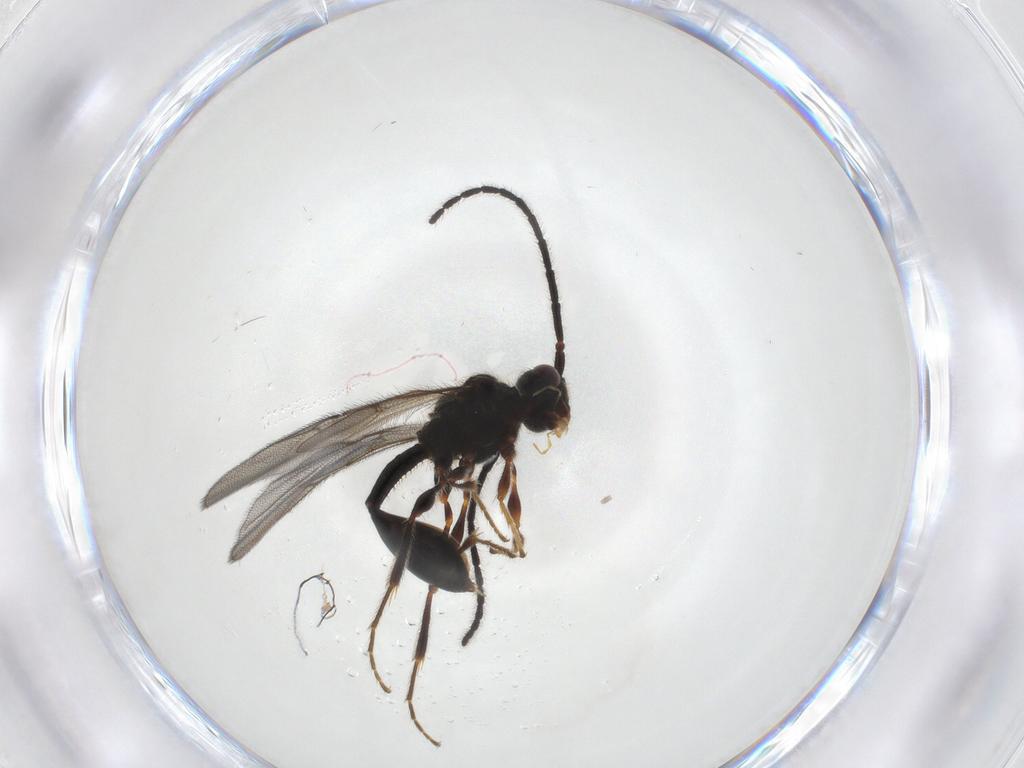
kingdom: Animalia
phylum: Arthropoda
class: Insecta
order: Hymenoptera
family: Diapriidae
